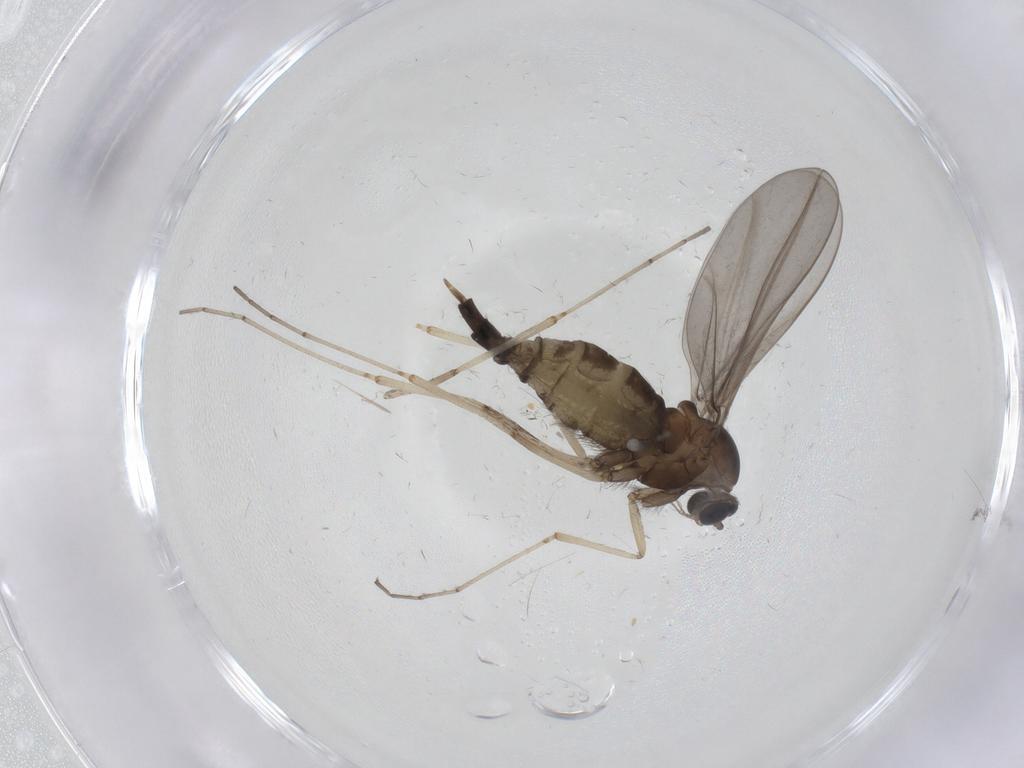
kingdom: Animalia
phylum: Arthropoda
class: Insecta
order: Diptera
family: Cecidomyiidae
